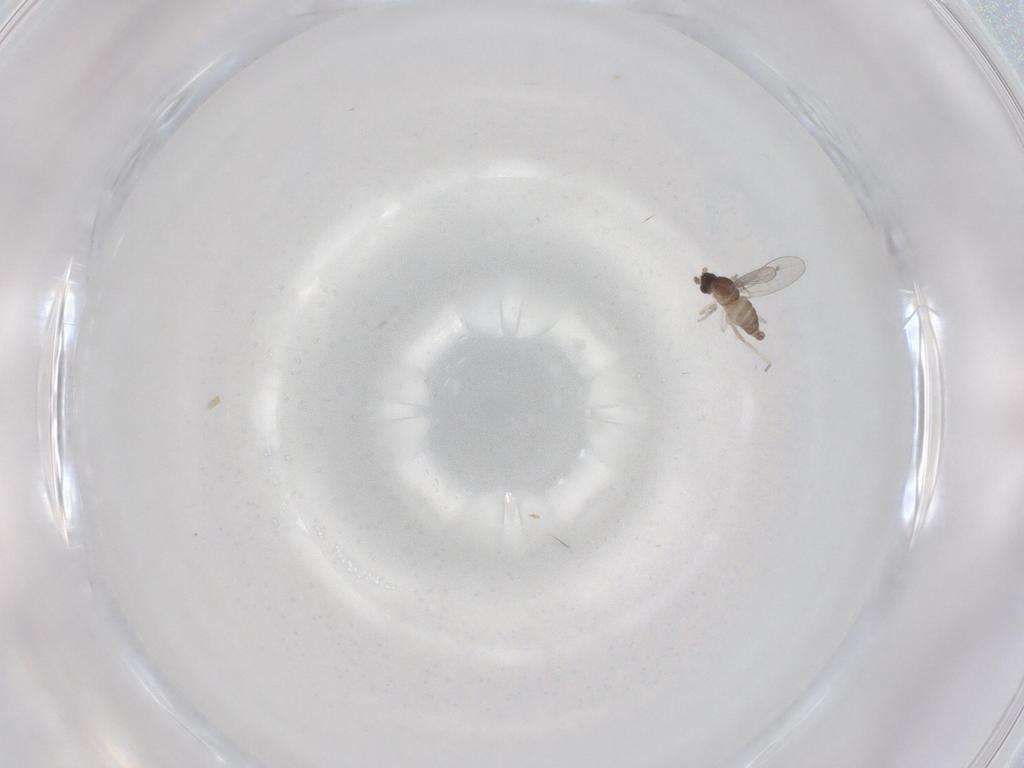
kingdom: Animalia
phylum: Arthropoda
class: Insecta
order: Diptera
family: Cecidomyiidae
